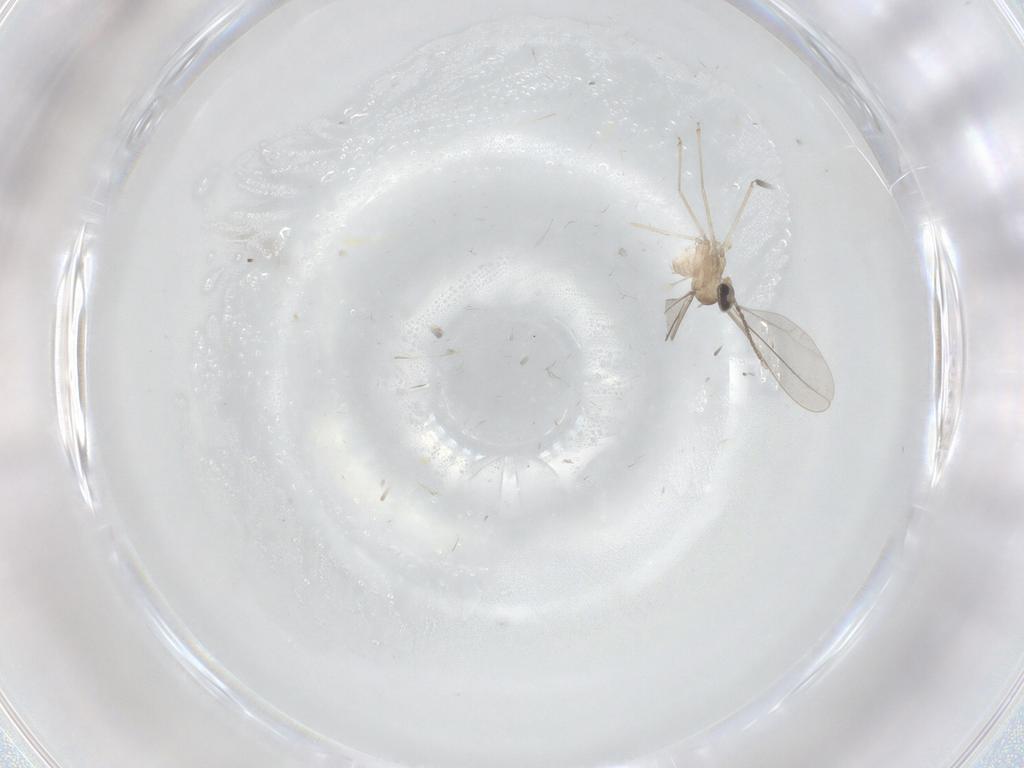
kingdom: Animalia
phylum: Arthropoda
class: Insecta
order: Diptera
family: Cecidomyiidae
